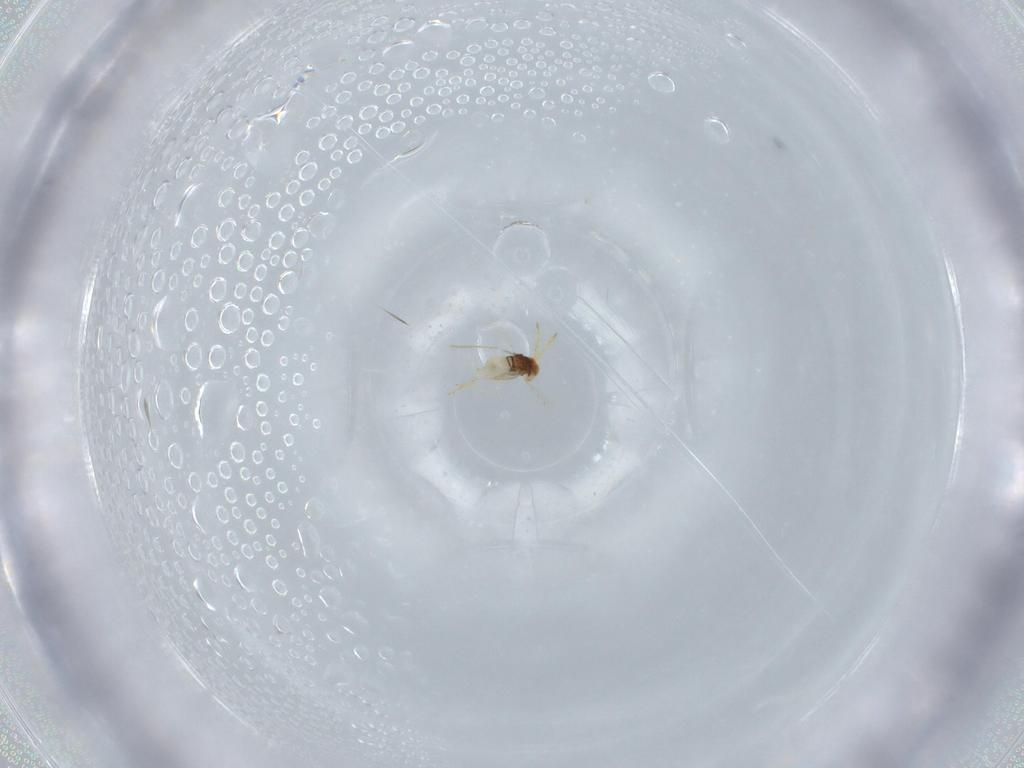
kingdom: Animalia
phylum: Arthropoda
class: Insecta
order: Hymenoptera
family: Aphelinidae
